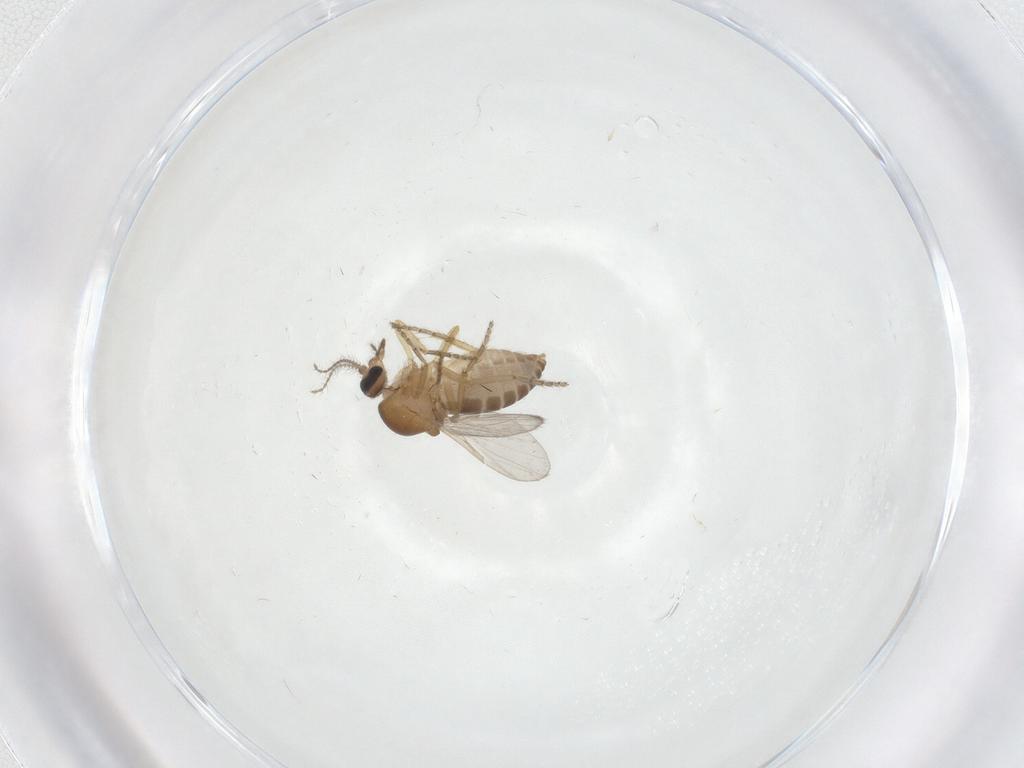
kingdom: Animalia
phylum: Arthropoda
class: Insecta
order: Diptera
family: Ceratopogonidae
